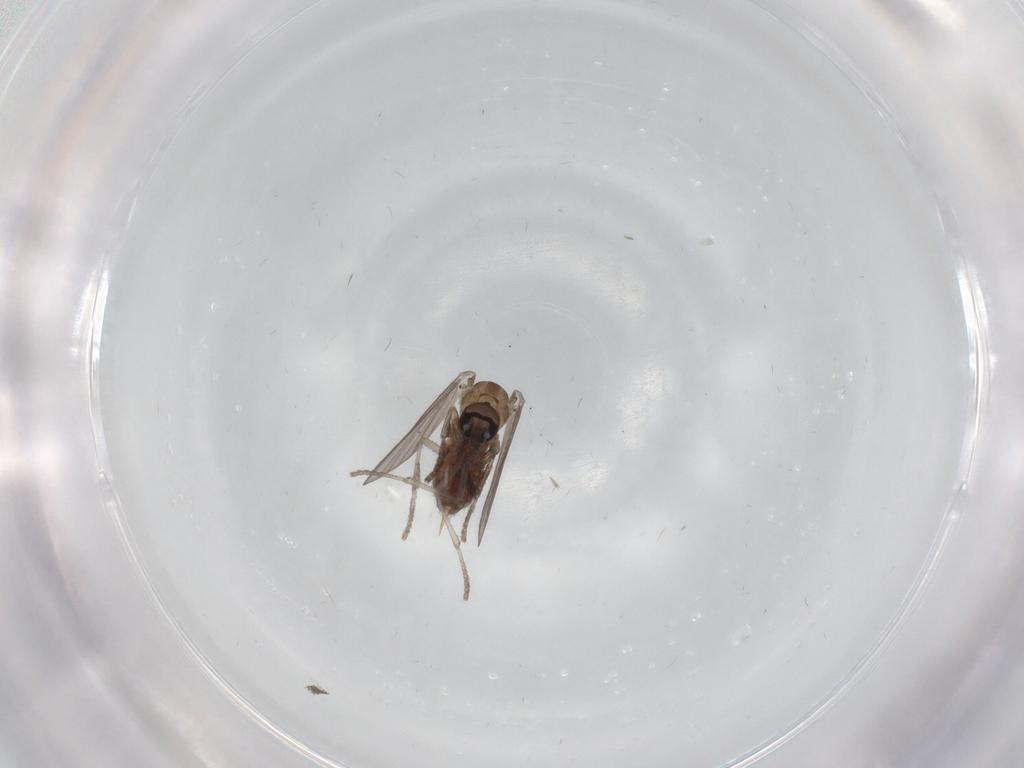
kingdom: Animalia
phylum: Arthropoda
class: Insecta
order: Diptera
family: Psychodidae
